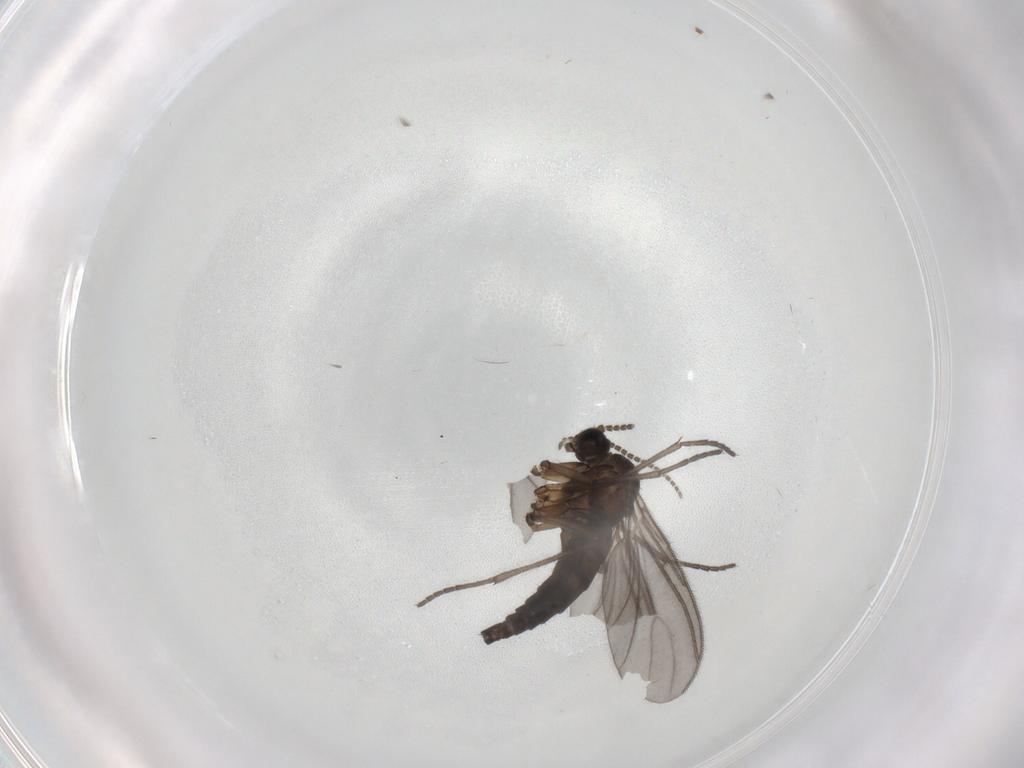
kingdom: Animalia
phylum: Arthropoda
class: Insecta
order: Diptera
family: Sciaridae
